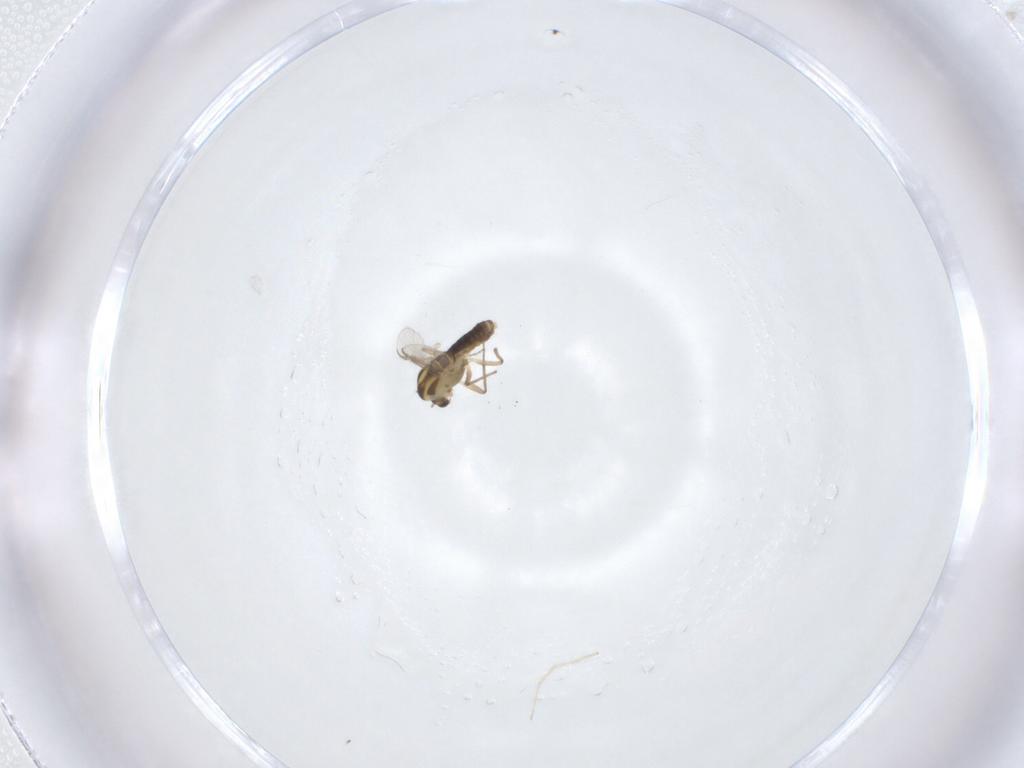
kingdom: Animalia
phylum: Arthropoda
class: Insecta
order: Diptera
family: Chironomidae
